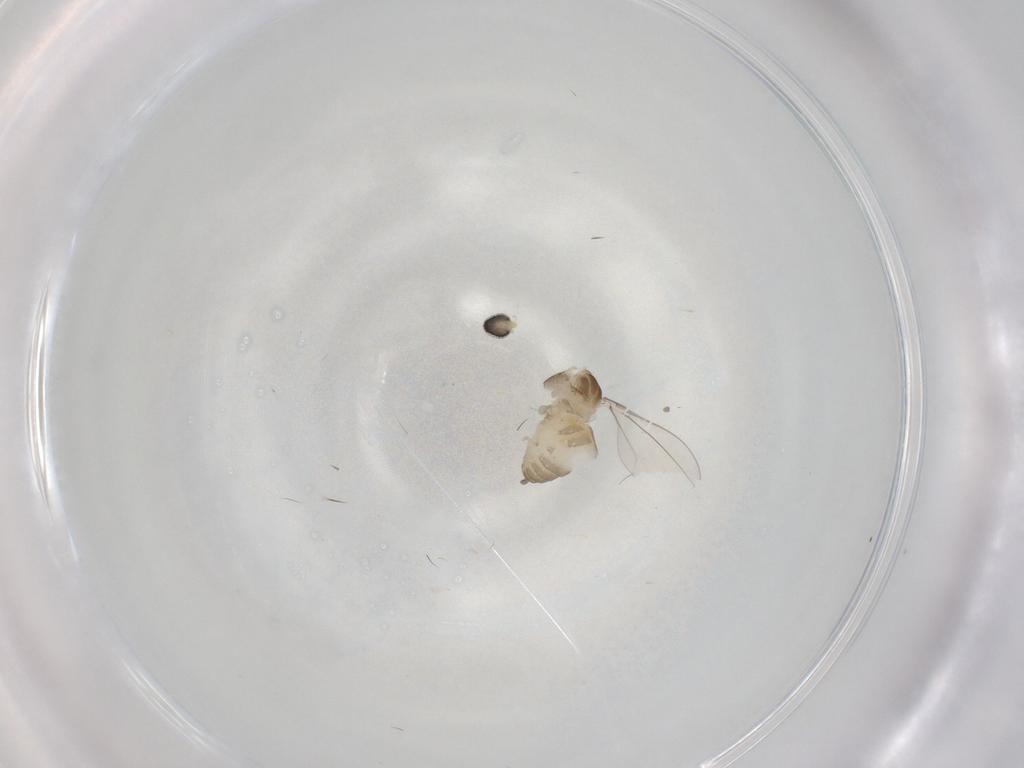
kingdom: Animalia
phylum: Arthropoda
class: Insecta
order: Diptera
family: Cecidomyiidae
